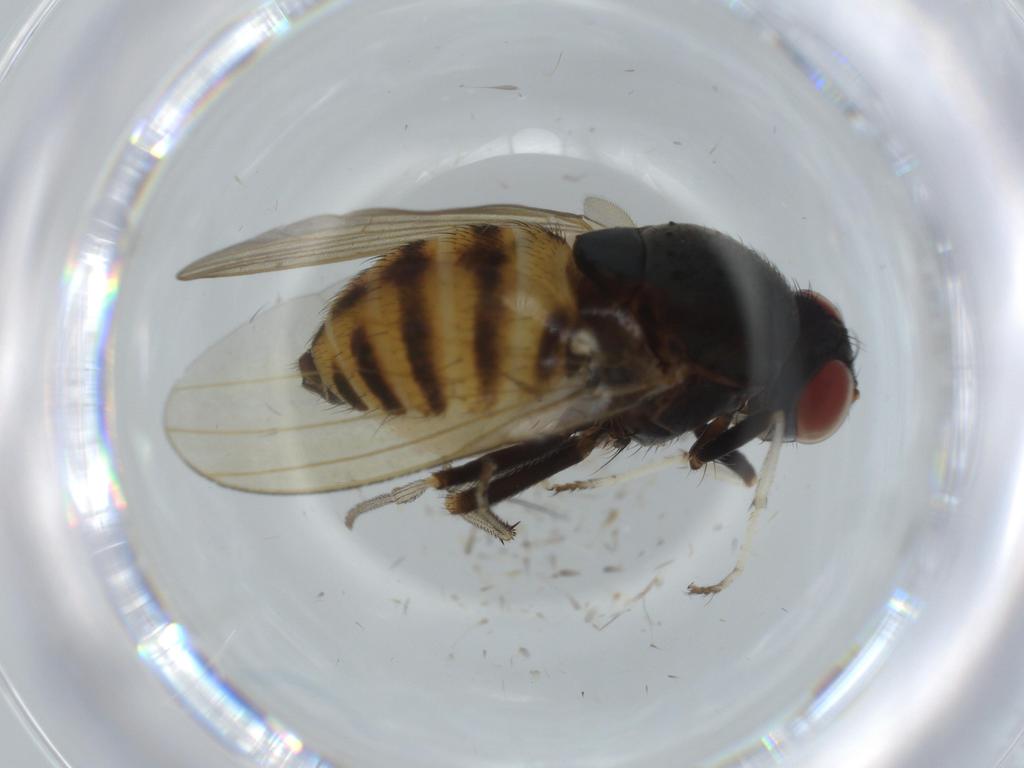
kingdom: Animalia
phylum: Arthropoda
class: Insecta
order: Diptera
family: Lauxaniidae
